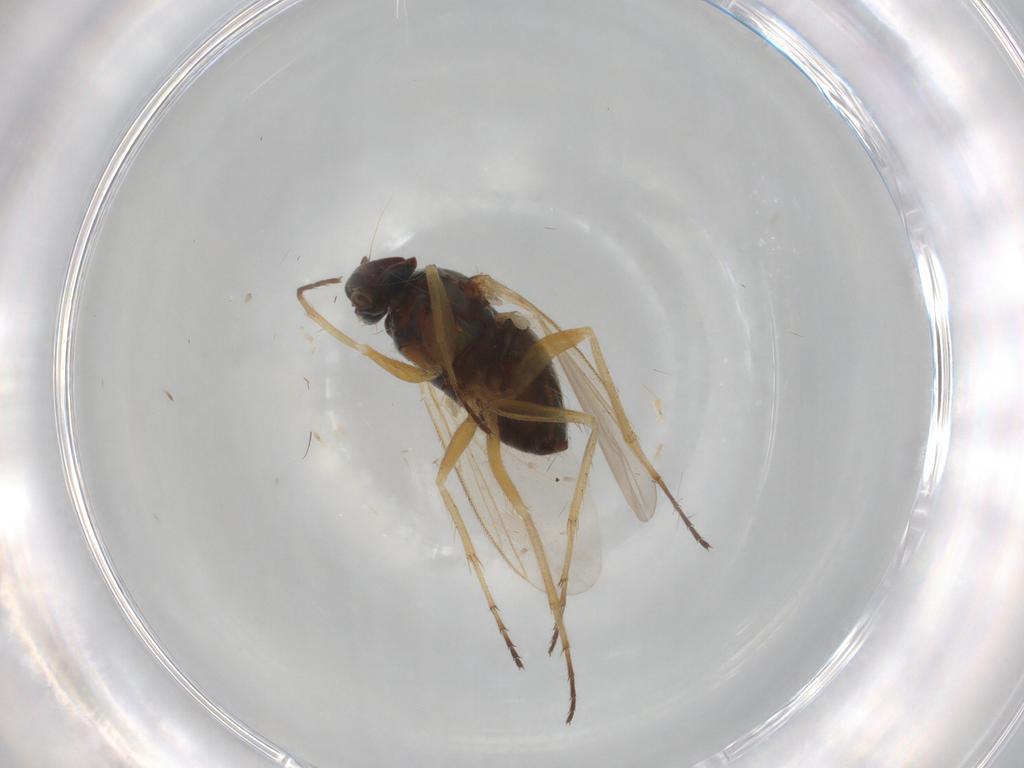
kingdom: Animalia
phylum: Arthropoda
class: Insecta
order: Diptera
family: Dolichopodidae
